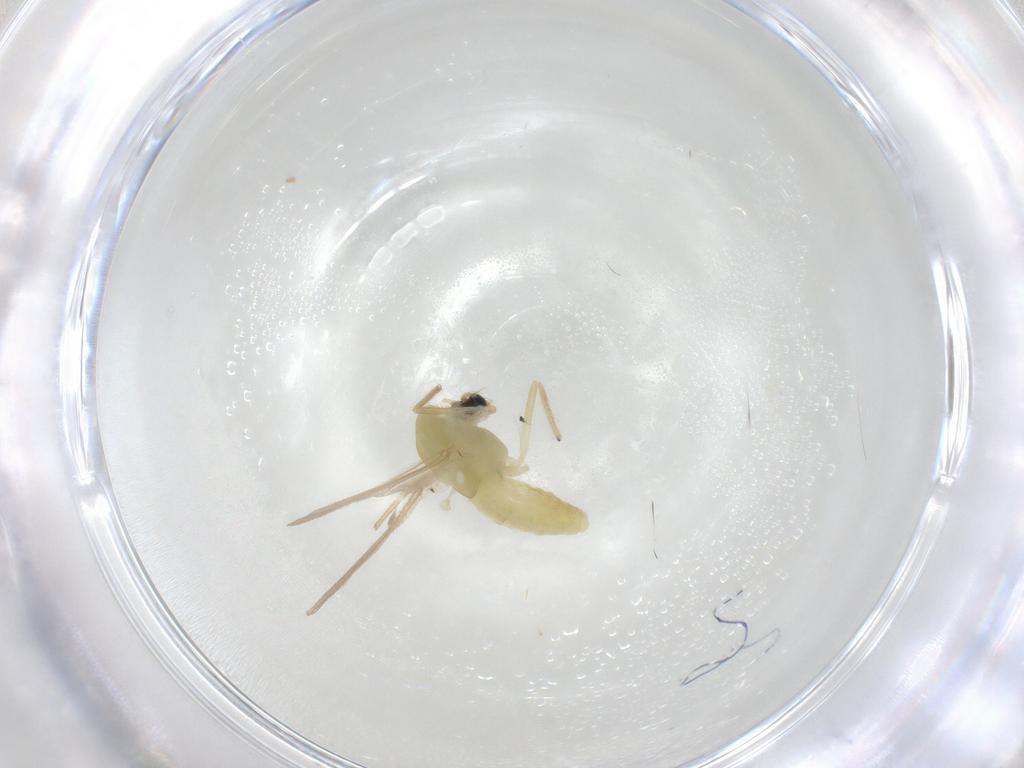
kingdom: Animalia
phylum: Arthropoda
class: Insecta
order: Diptera
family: Chironomidae
